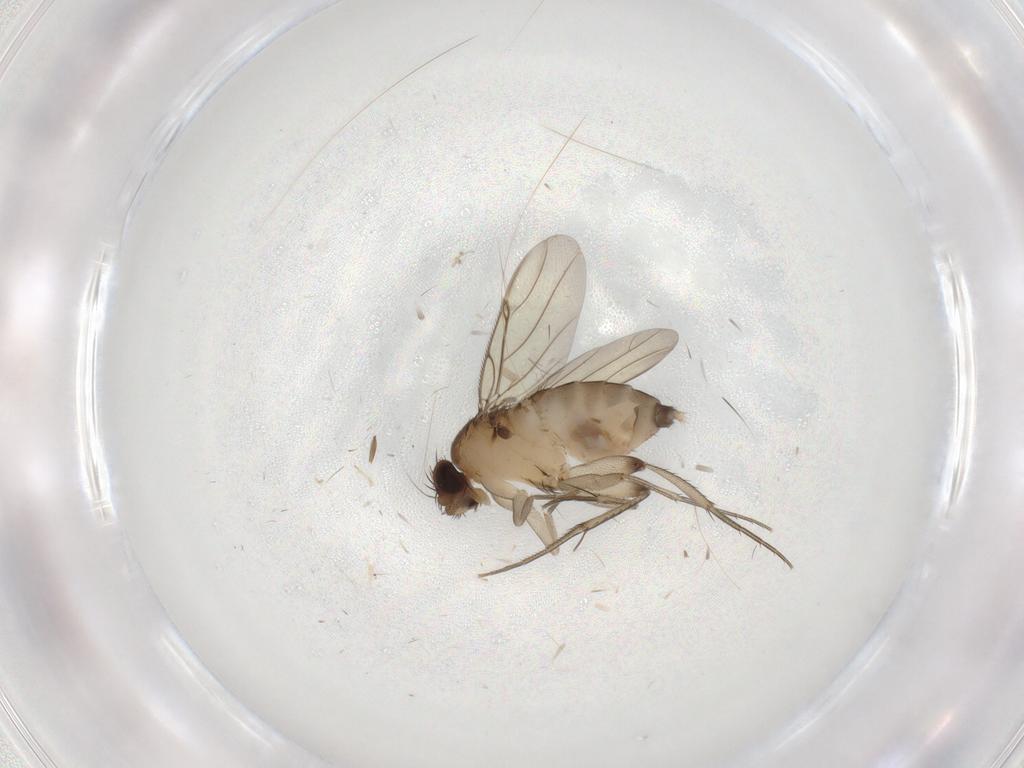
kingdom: Animalia
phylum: Arthropoda
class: Insecta
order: Diptera
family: Phoridae
